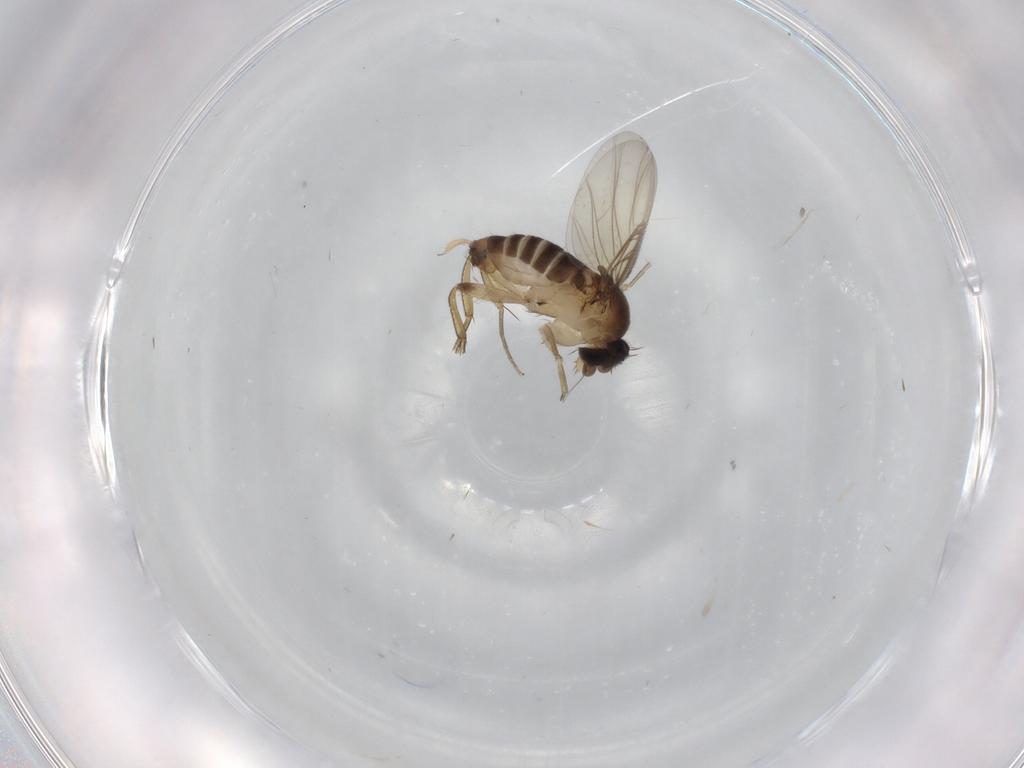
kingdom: Animalia
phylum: Arthropoda
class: Insecta
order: Diptera
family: Phoridae
